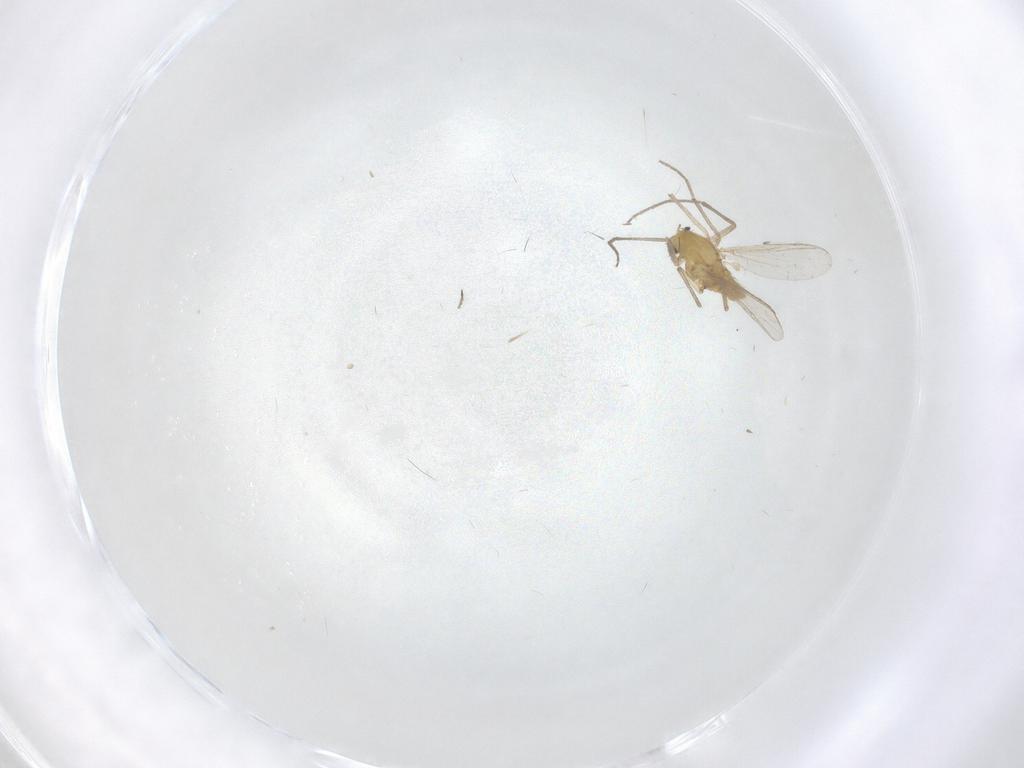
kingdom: Animalia
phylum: Arthropoda
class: Insecta
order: Diptera
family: Chironomidae
